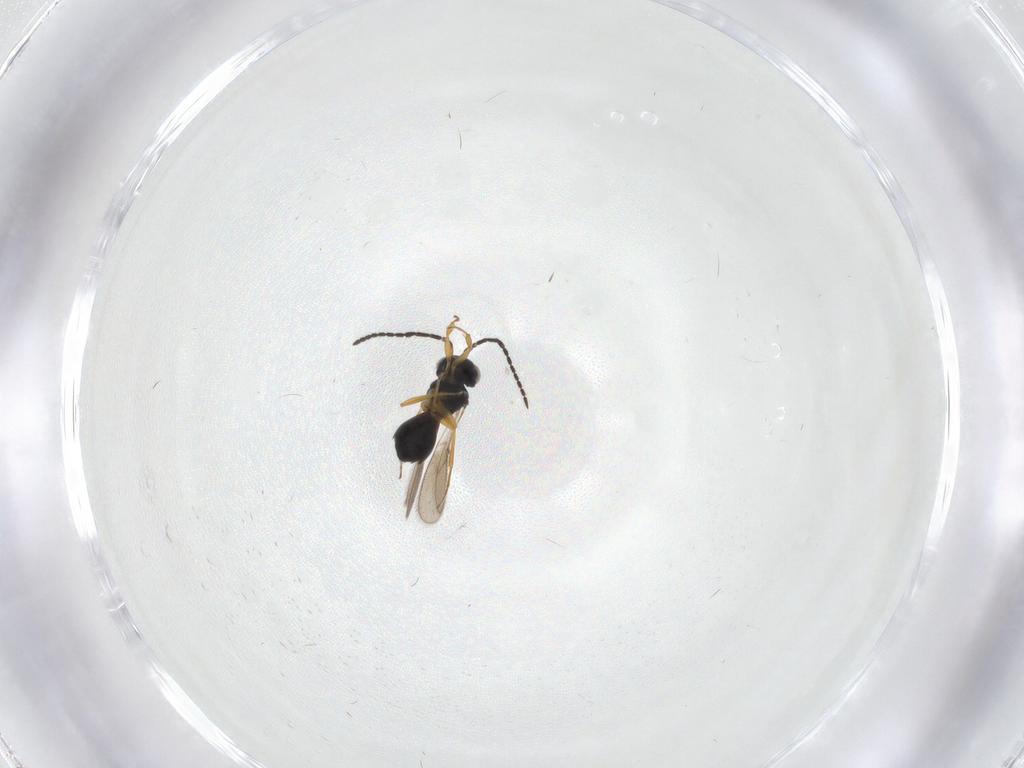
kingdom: Animalia
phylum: Arthropoda
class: Insecta
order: Hymenoptera
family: Scelionidae
